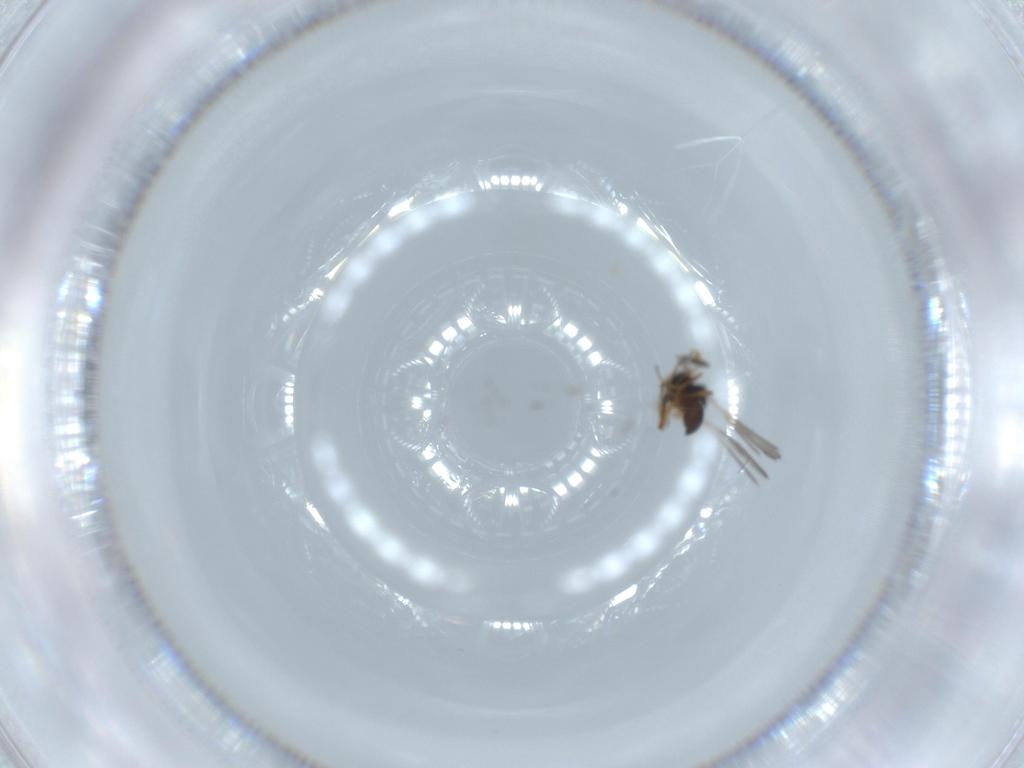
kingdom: Animalia
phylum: Arthropoda
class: Insecta
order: Hymenoptera
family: Scelionidae
